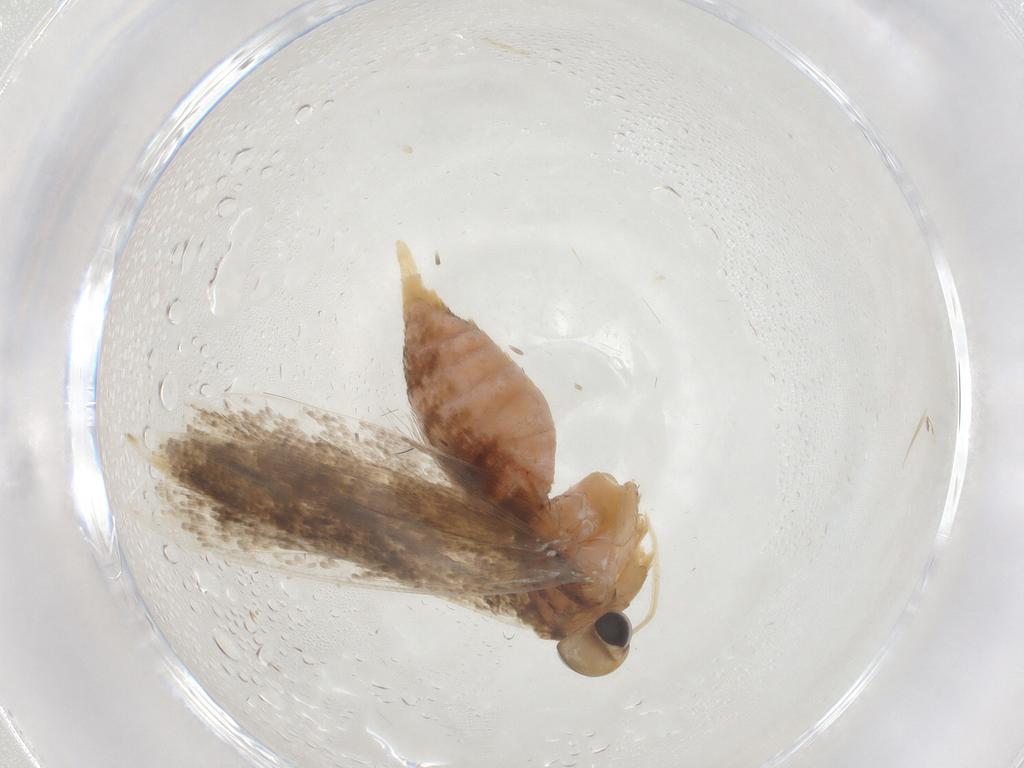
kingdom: Animalia
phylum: Arthropoda
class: Insecta
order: Lepidoptera
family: Gelechiidae
